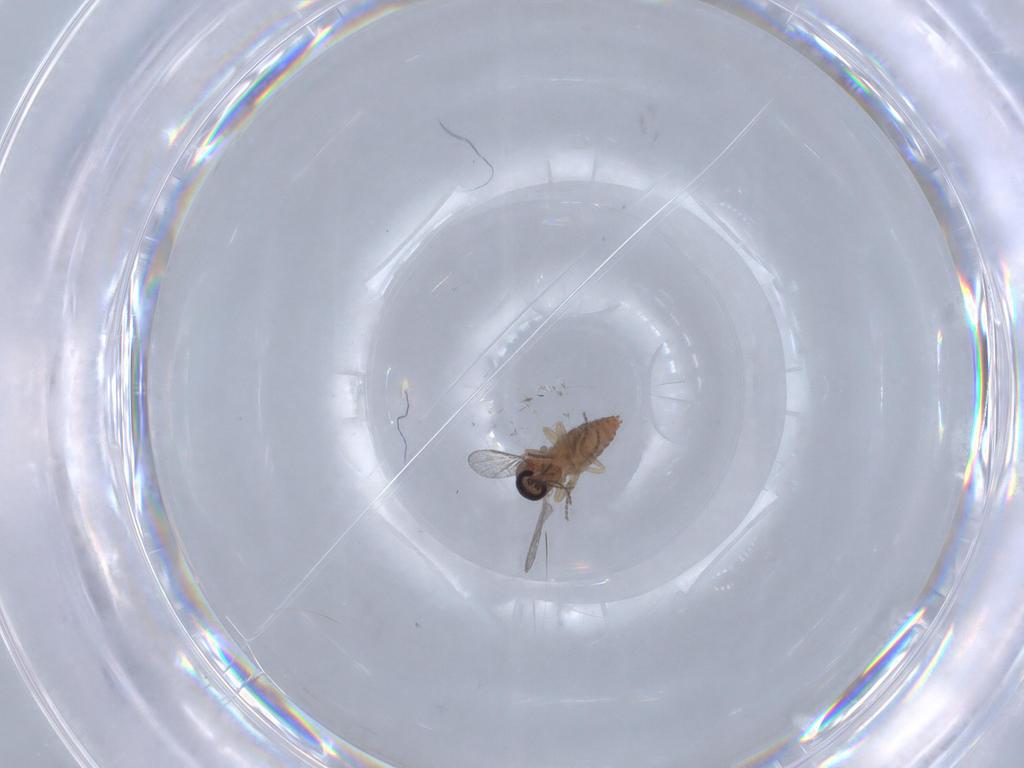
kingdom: Animalia
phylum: Arthropoda
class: Insecta
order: Diptera
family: Ceratopogonidae
